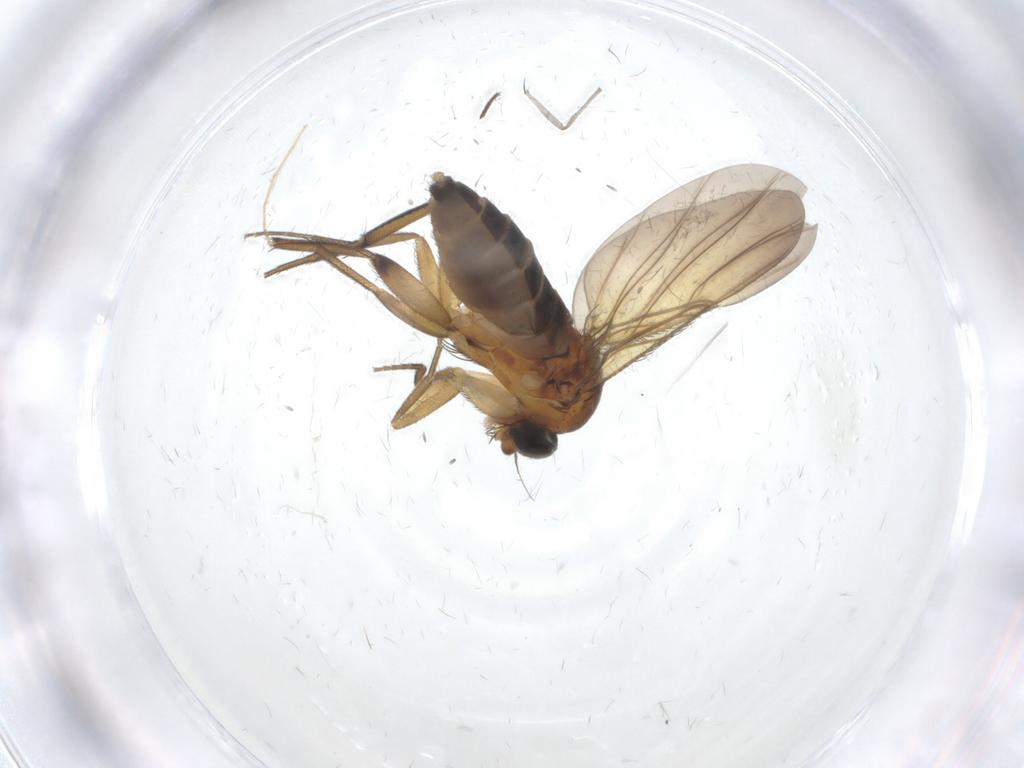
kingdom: Animalia
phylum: Arthropoda
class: Insecta
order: Diptera
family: Phoridae
